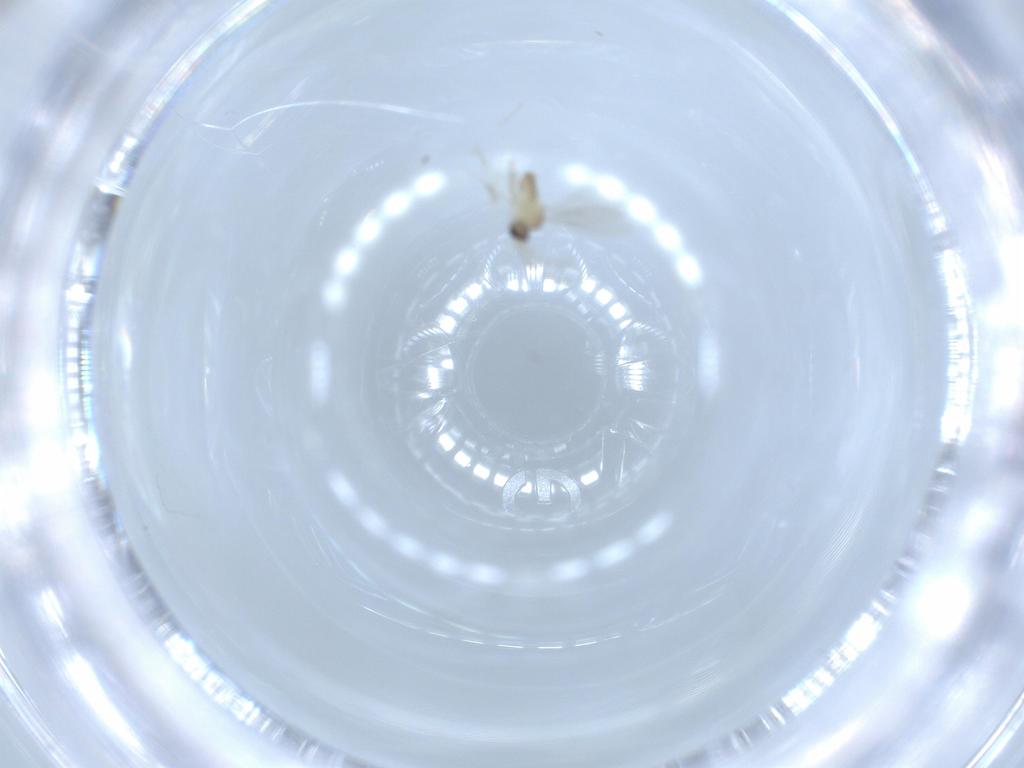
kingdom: Animalia
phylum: Arthropoda
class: Insecta
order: Diptera
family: Cecidomyiidae
